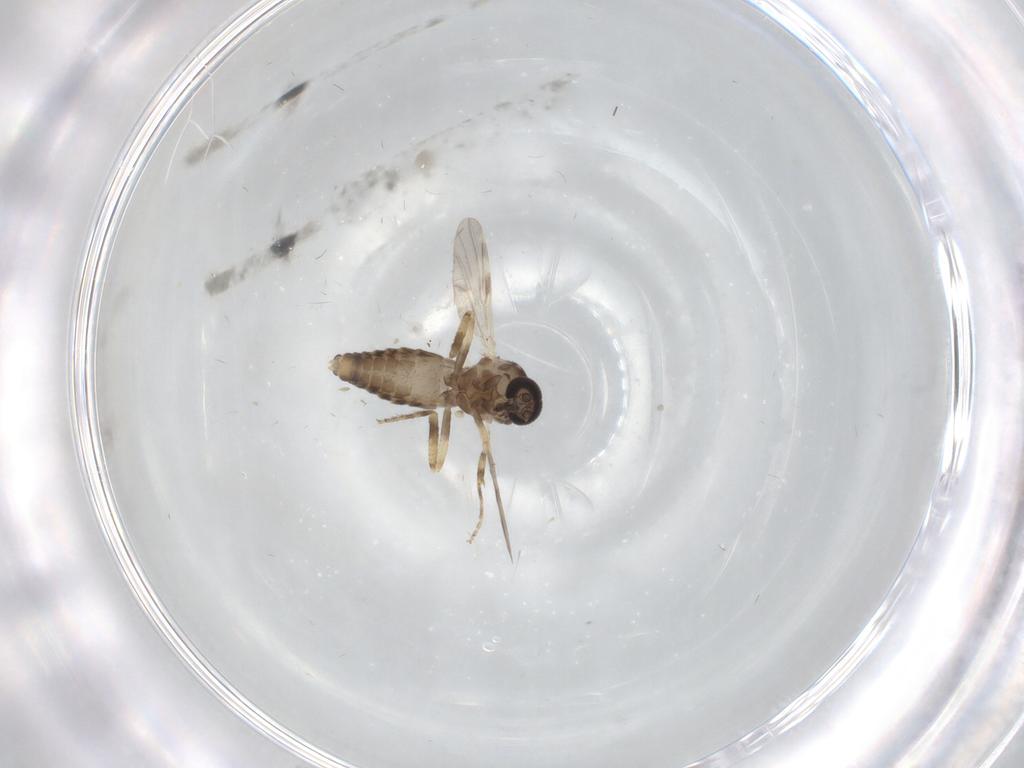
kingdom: Animalia
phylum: Arthropoda
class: Insecta
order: Diptera
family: Ceratopogonidae
